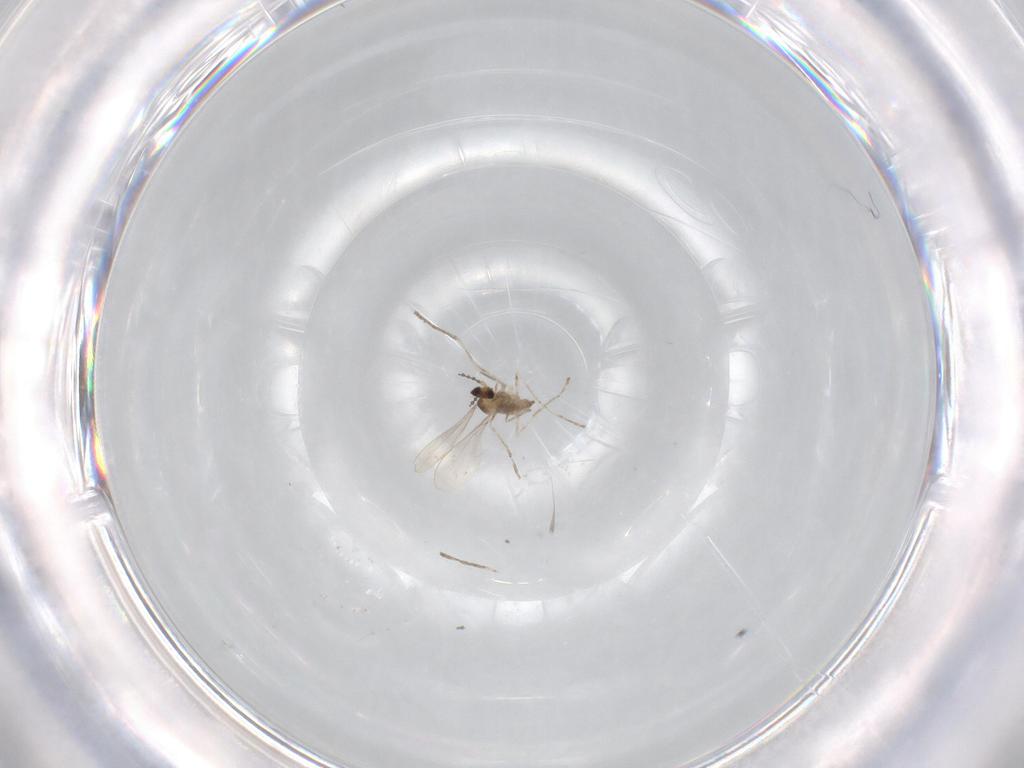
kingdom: Animalia
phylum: Arthropoda
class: Insecta
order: Diptera
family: Cecidomyiidae
